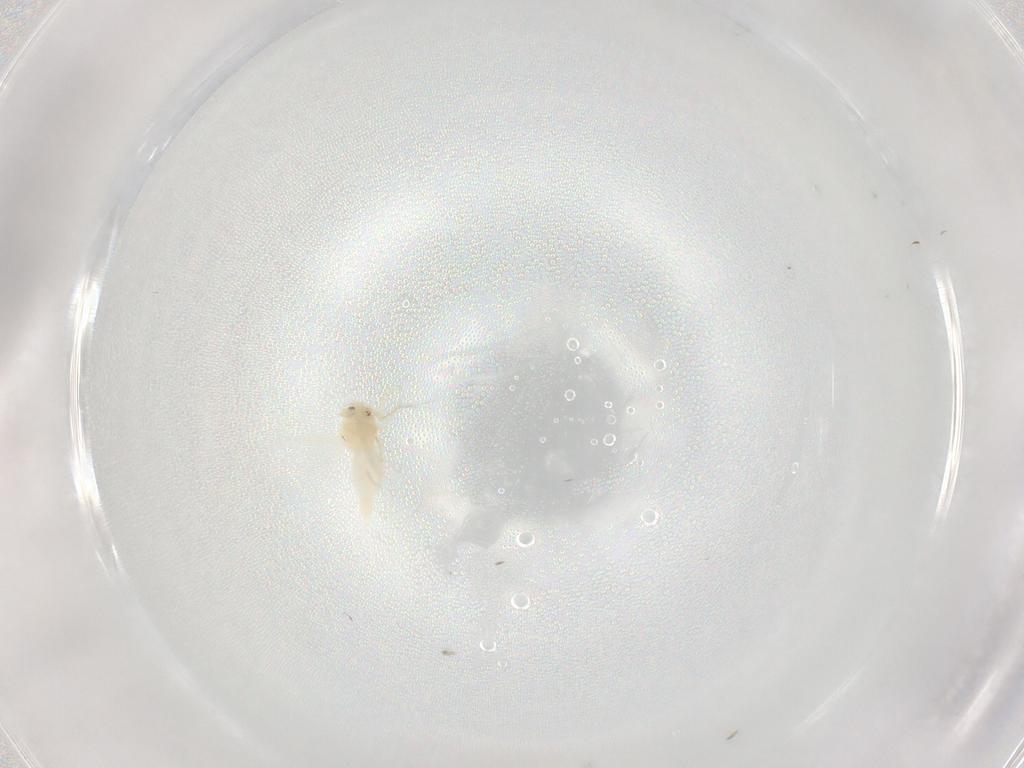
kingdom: Animalia
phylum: Arthropoda
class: Insecta
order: Hemiptera
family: Aleyrodidae
